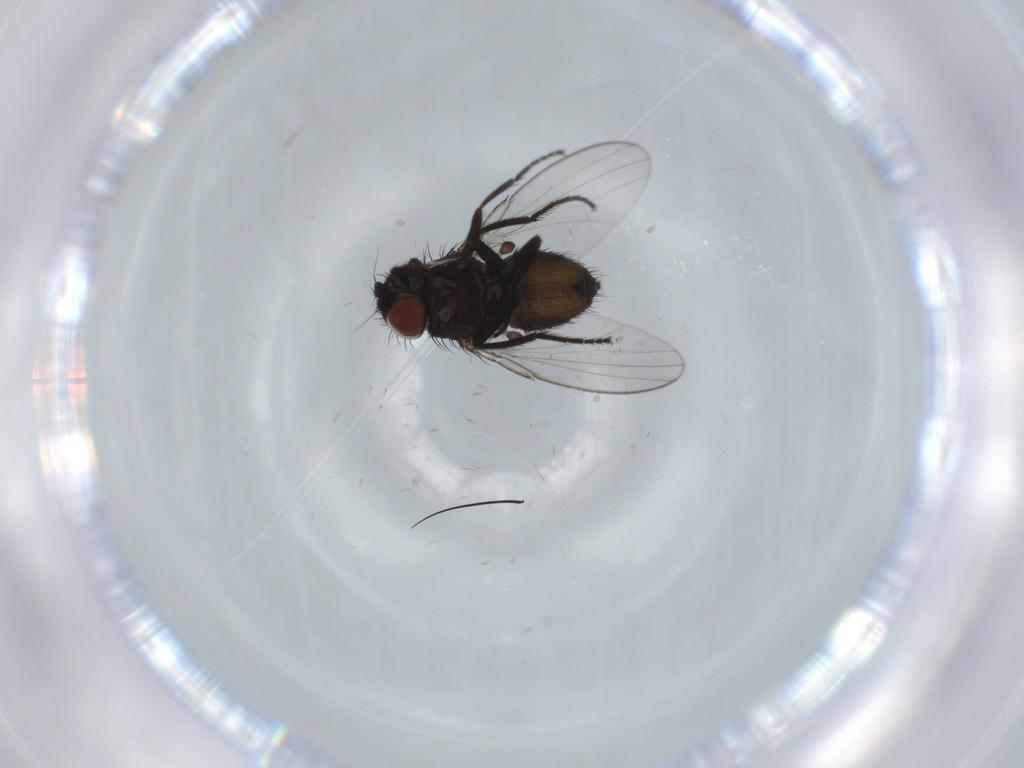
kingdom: Animalia
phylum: Arthropoda
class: Insecta
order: Diptera
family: Milichiidae
